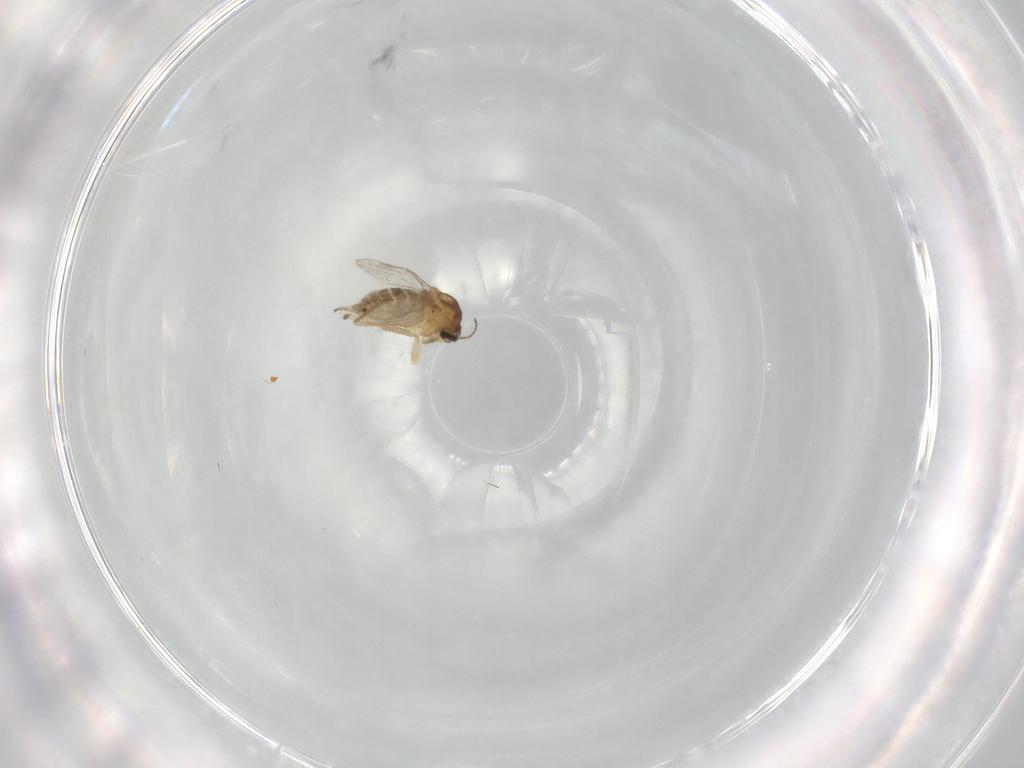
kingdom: Animalia
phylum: Arthropoda
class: Insecta
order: Diptera
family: Ceratopogonidae
